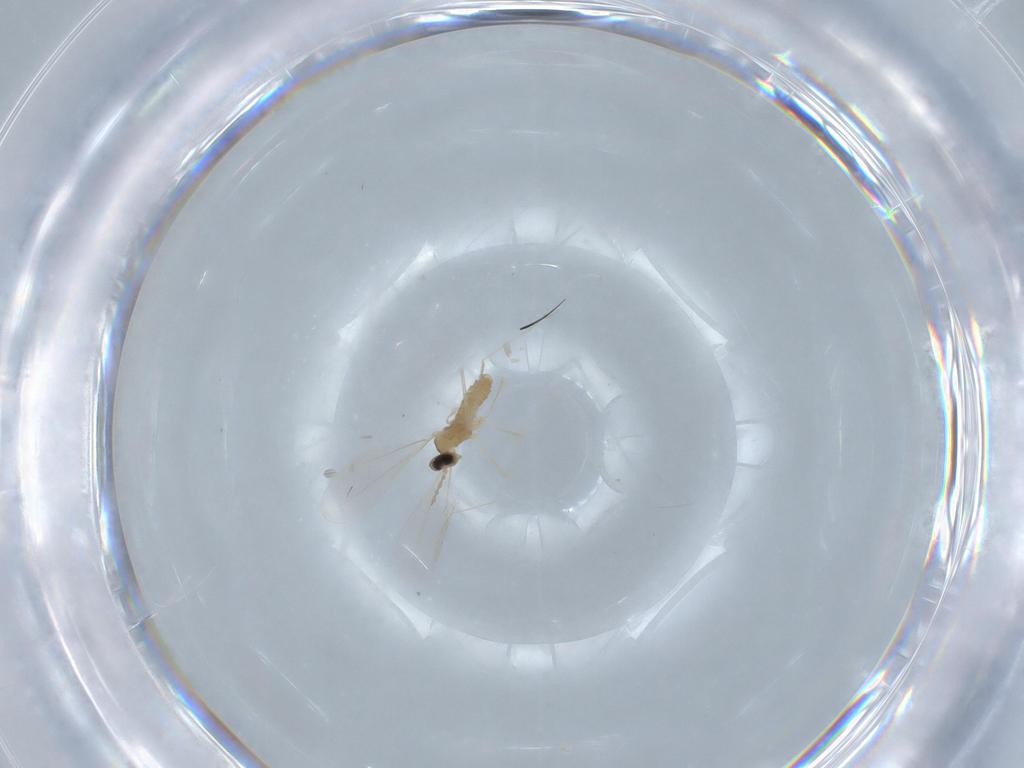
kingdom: Animalia
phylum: Arthropoda
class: Insecta
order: Diptera
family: Cecidomyiidae
